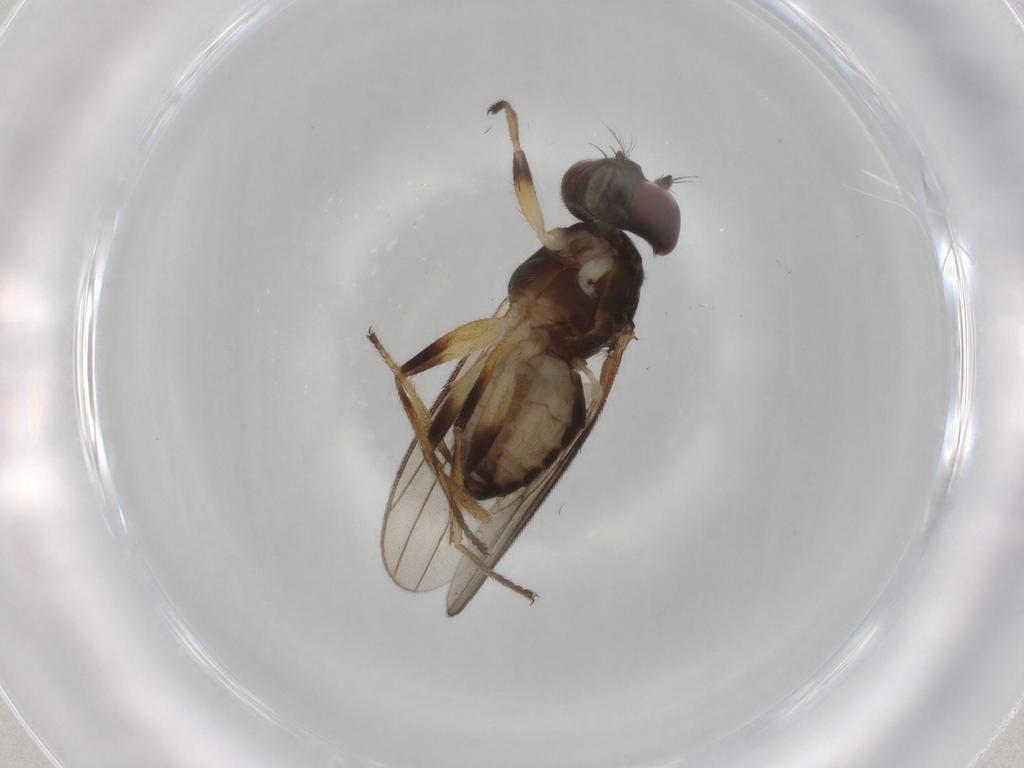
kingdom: Animalia
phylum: Arthropoda
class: Insecta
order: Diptera
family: Periscelididae
